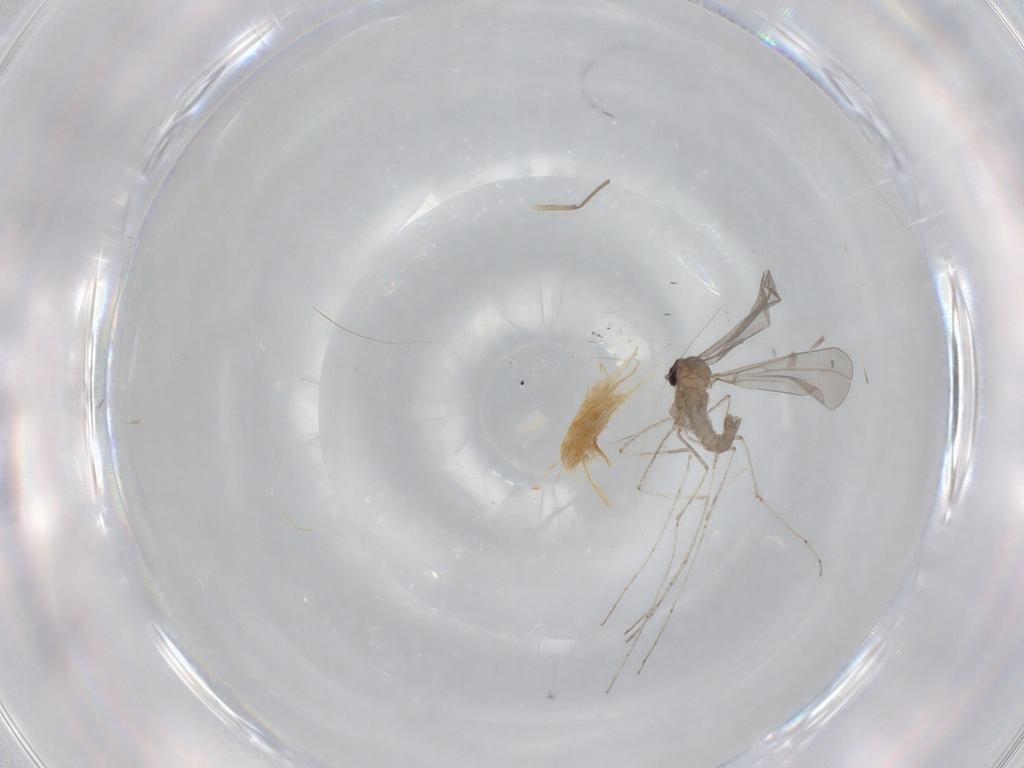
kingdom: Animalia
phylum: Arthropoda
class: Insecta
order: Diptera
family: Cecidomyiidae
